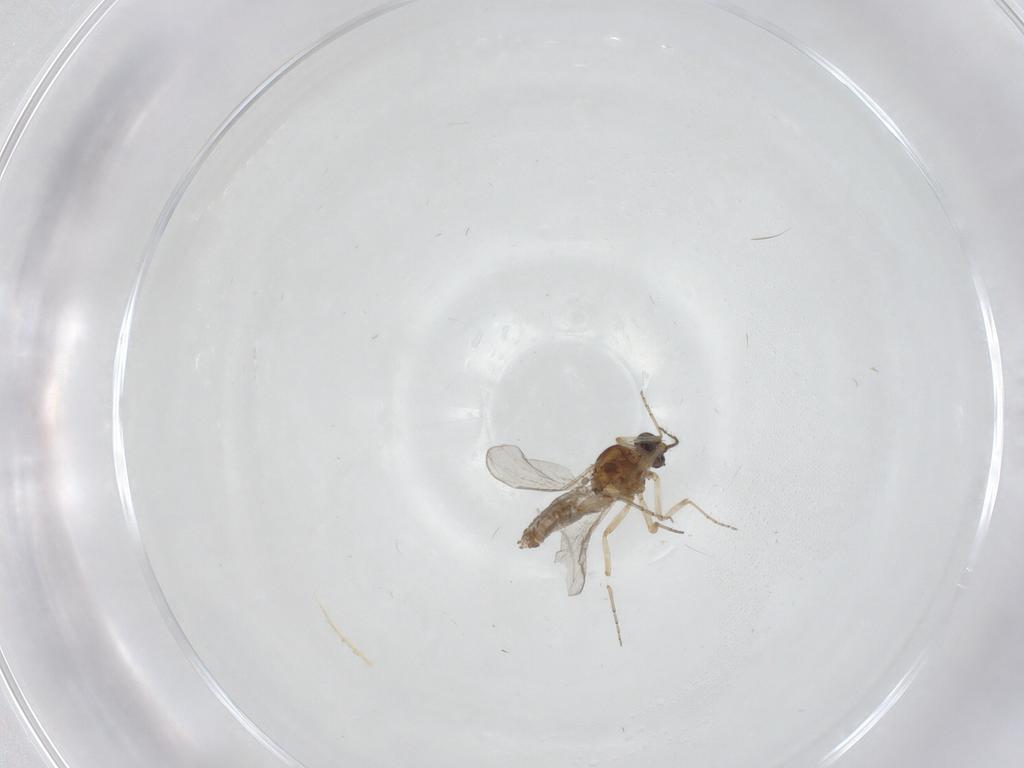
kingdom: Animalia
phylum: Arthropoda
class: Insecta
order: Diptera
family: Ceratopogonidae
